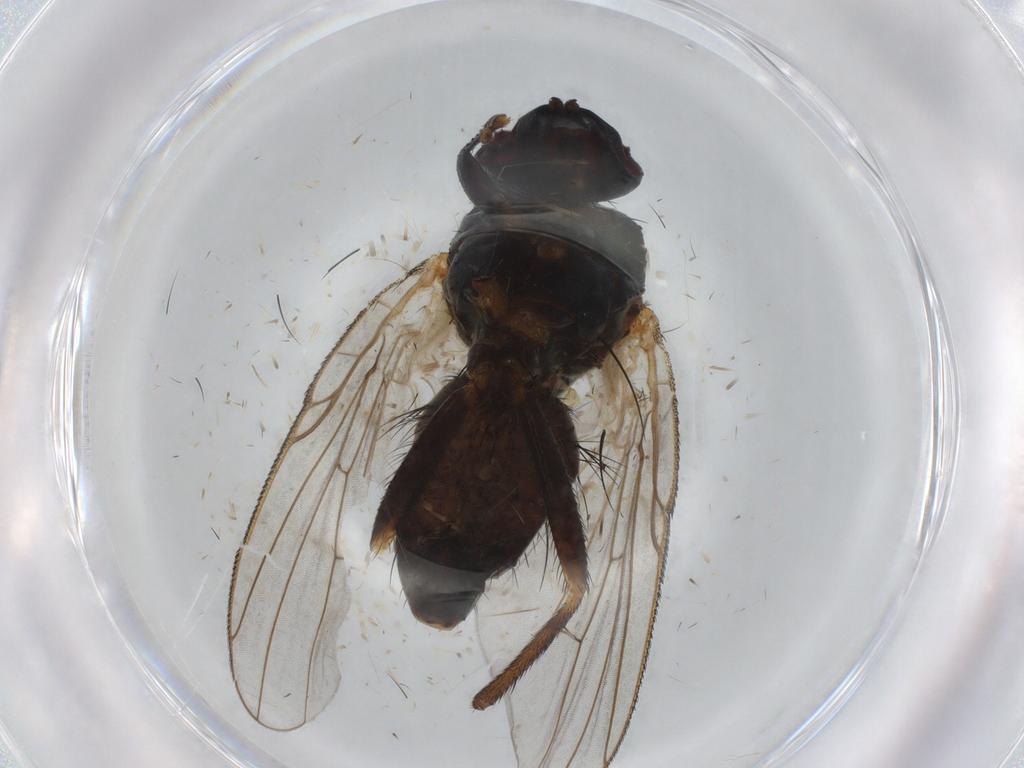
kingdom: Animalia
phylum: Arthropoda
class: Insecta
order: Diptera
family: Muscidae
